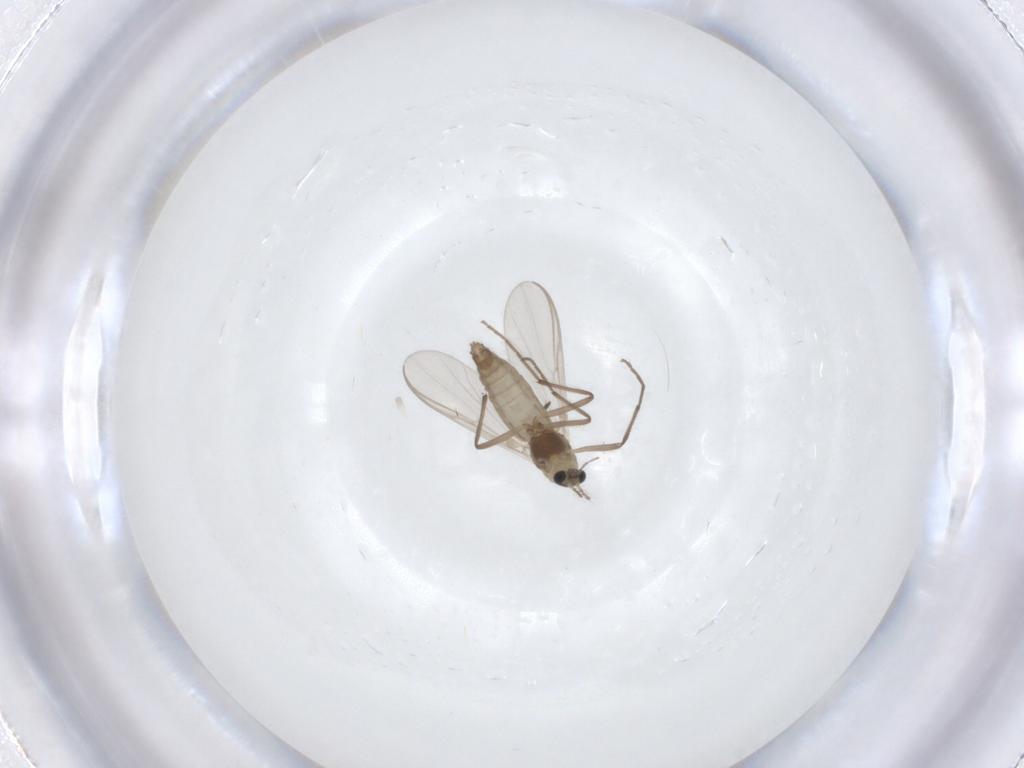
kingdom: Animalia
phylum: Arthropoda
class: Insecta
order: Diptera
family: Chironomidae
